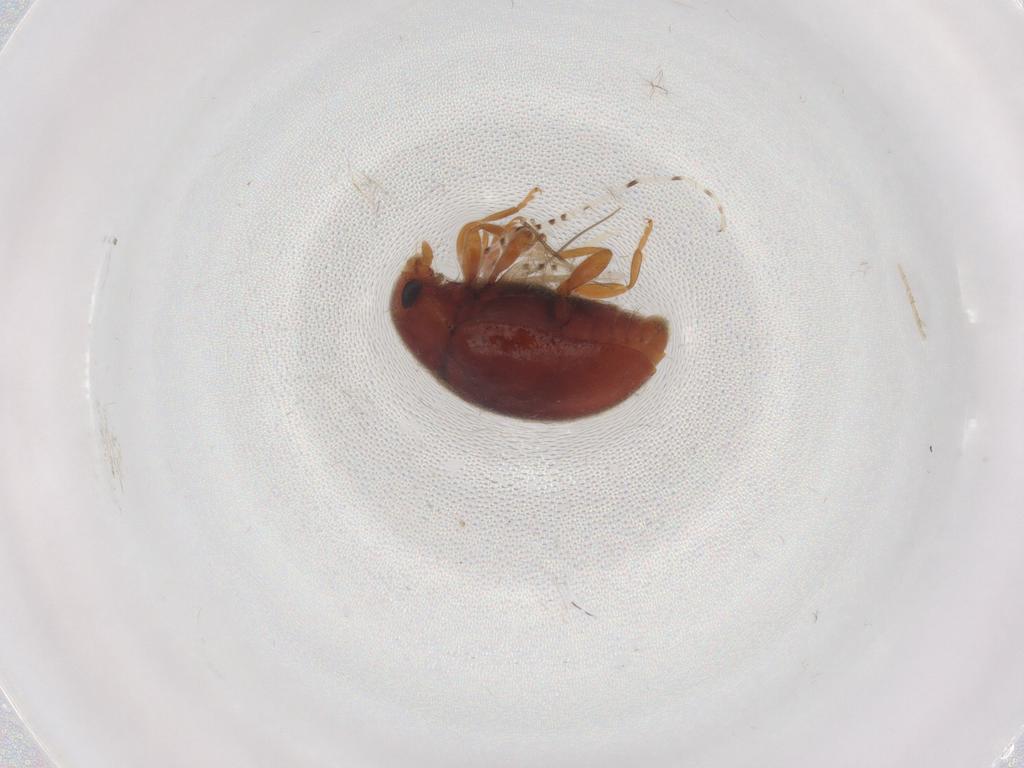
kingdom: Animalia
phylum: Arthropoda
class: Insecta
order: Coleoptera
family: Coccinellidae
